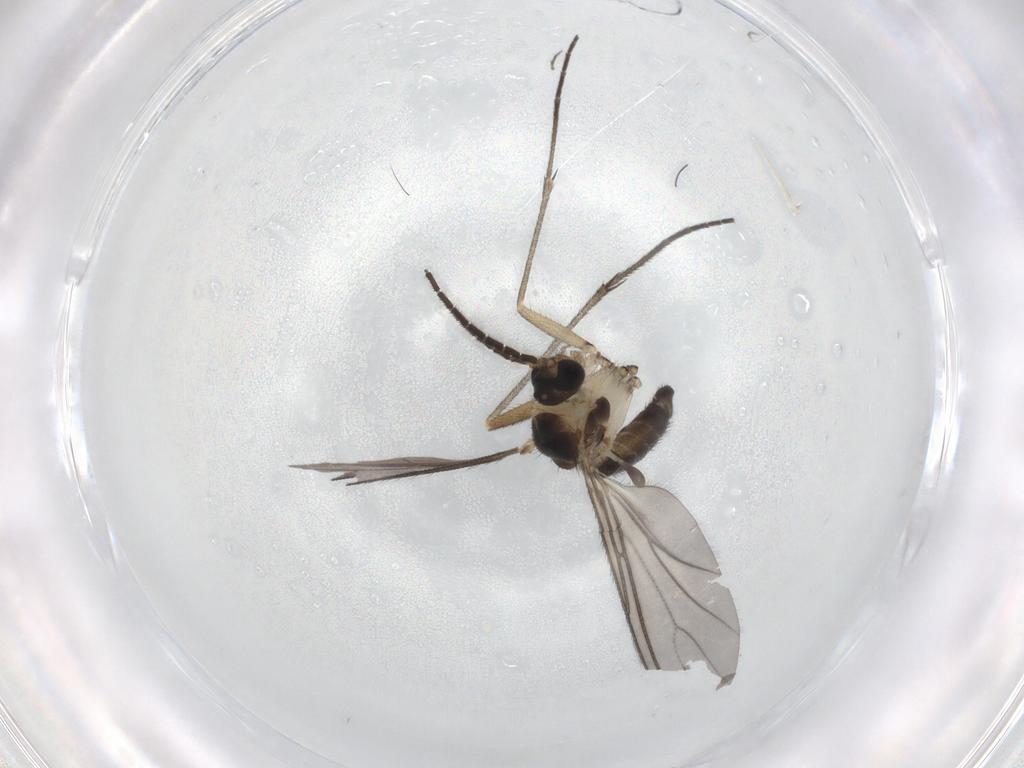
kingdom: Animalia
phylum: Arthropoda
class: Insecta
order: Diptera
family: Sciaridae
